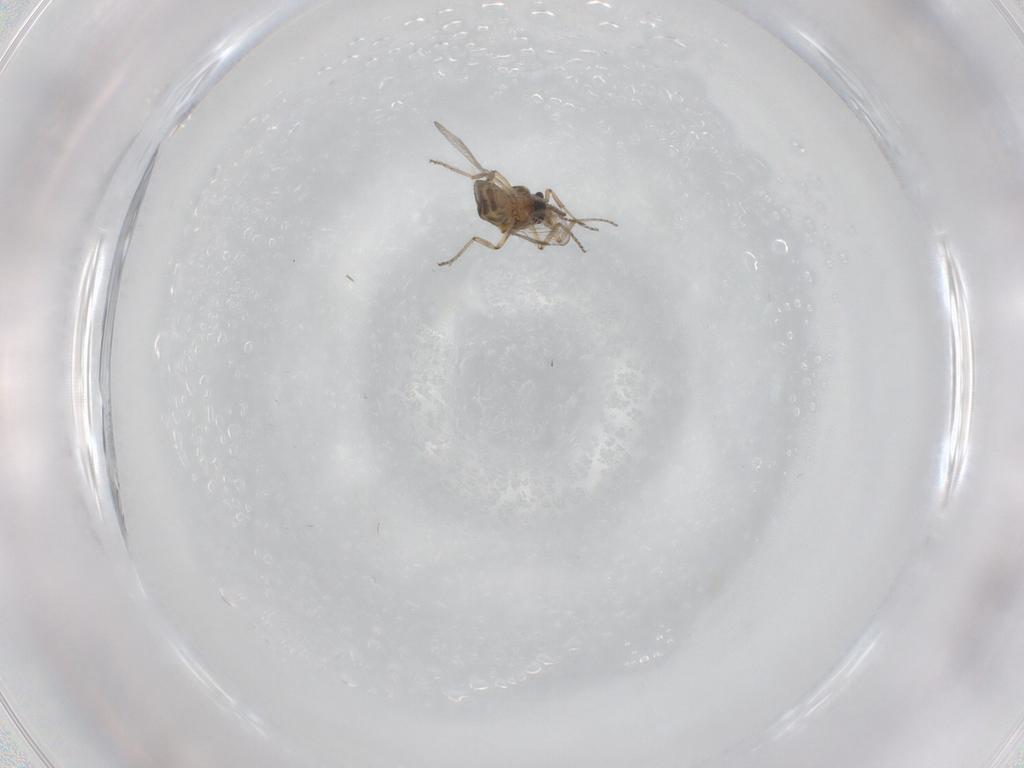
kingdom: Animalia
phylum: Arthropoda
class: Insecta
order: Diptera
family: Ceratopogonidae
